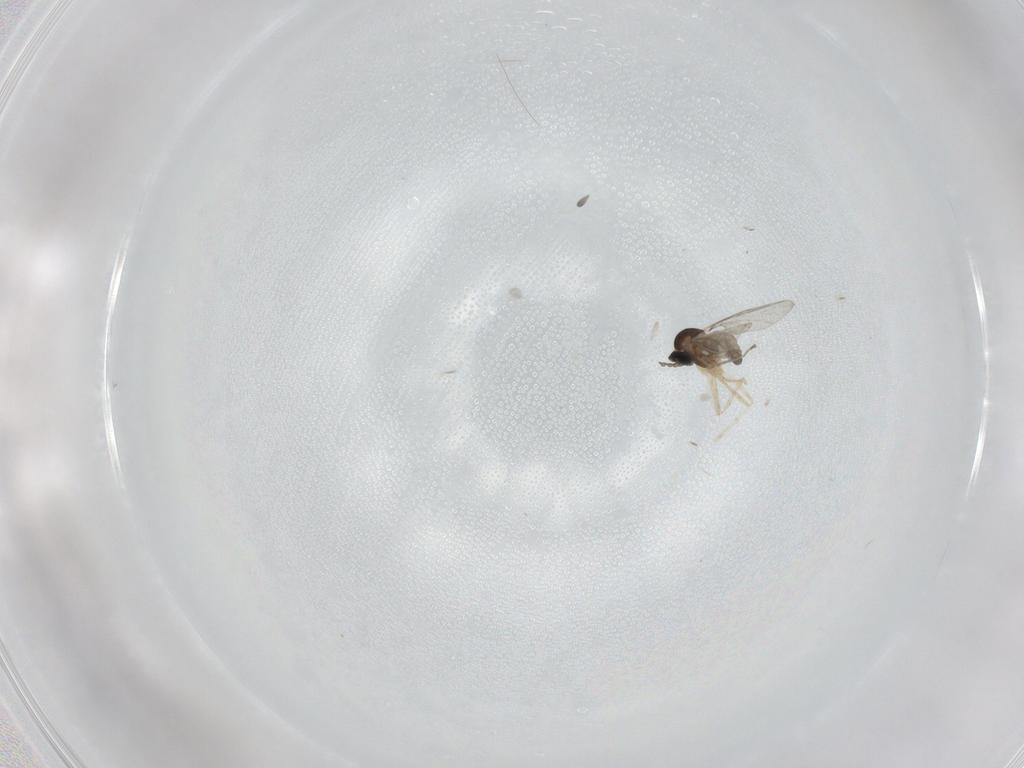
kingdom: Animalia
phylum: Arthropoda
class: Insecta
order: Diptera
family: Cecidomyiidae
